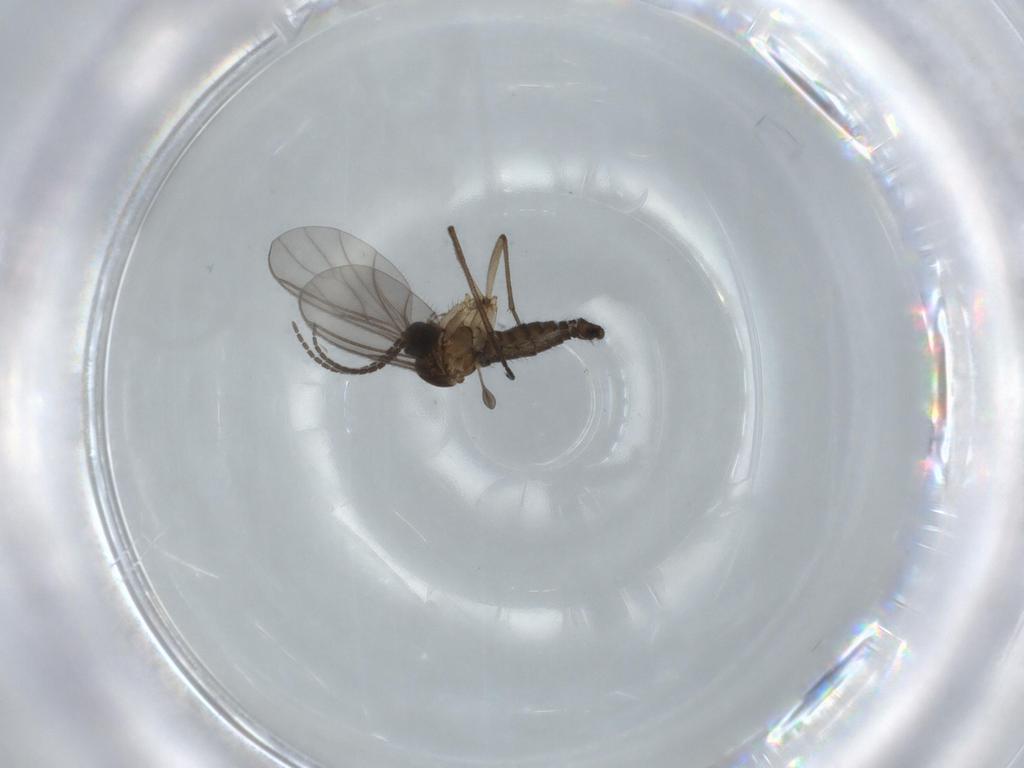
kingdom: Animalia
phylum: Arthropoda
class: Insecta
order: Diptera
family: Sciaridae
